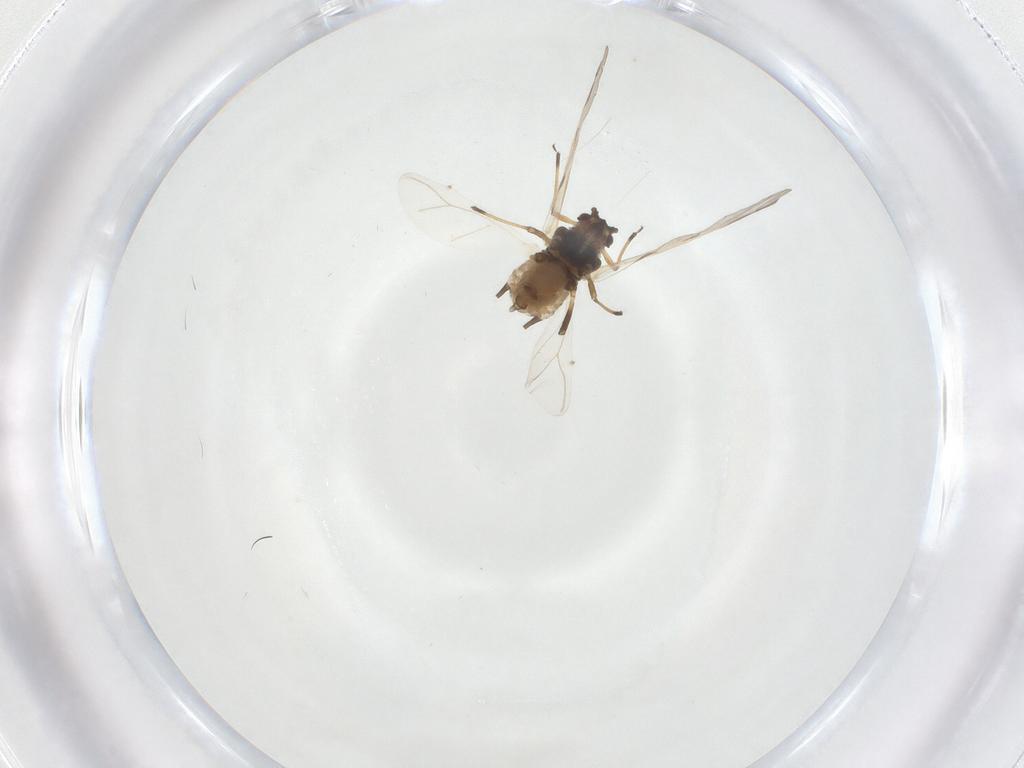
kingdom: Animalia
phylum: Arthropoda
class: Insecta
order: Hemiptera
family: Aphididae
